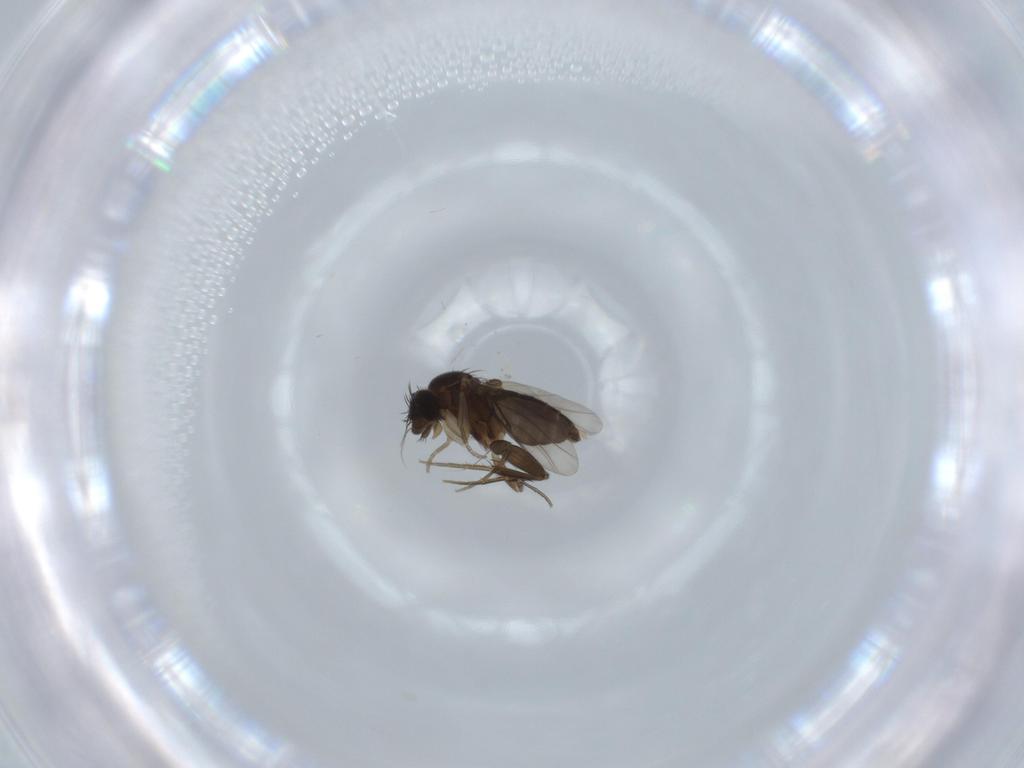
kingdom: Animalia
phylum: Arthropoda
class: Insecta
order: Diptera
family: Phoridae
